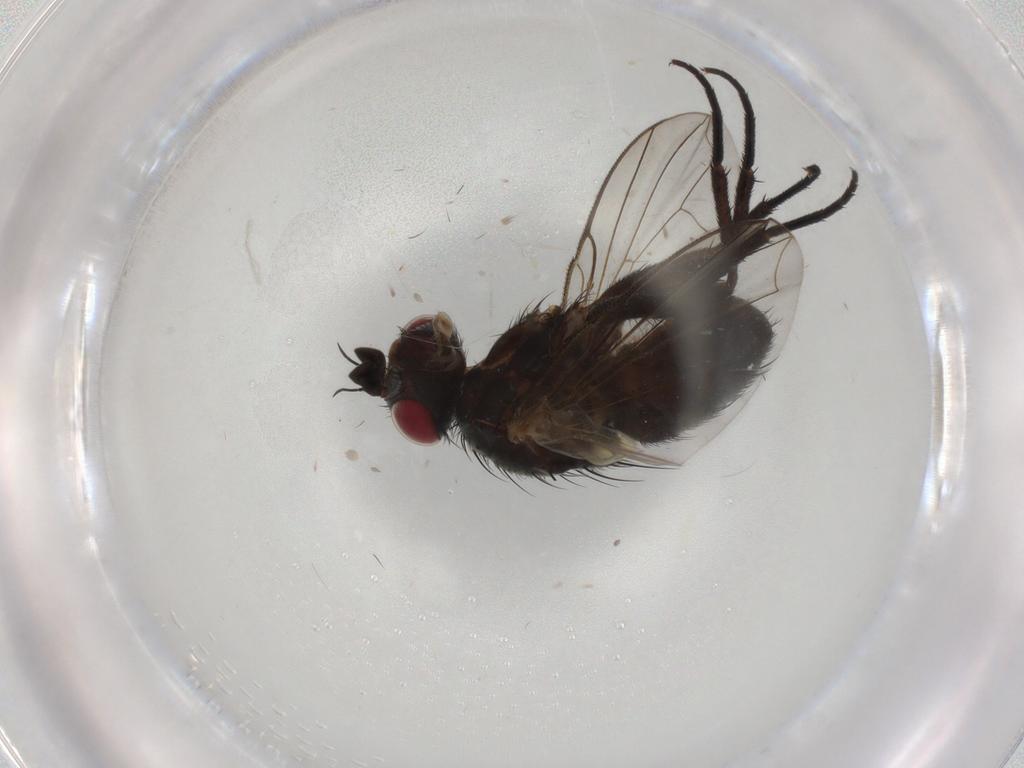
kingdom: Animalia
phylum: Arthropoda
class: Insecta
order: Diptera
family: Tachinidae
